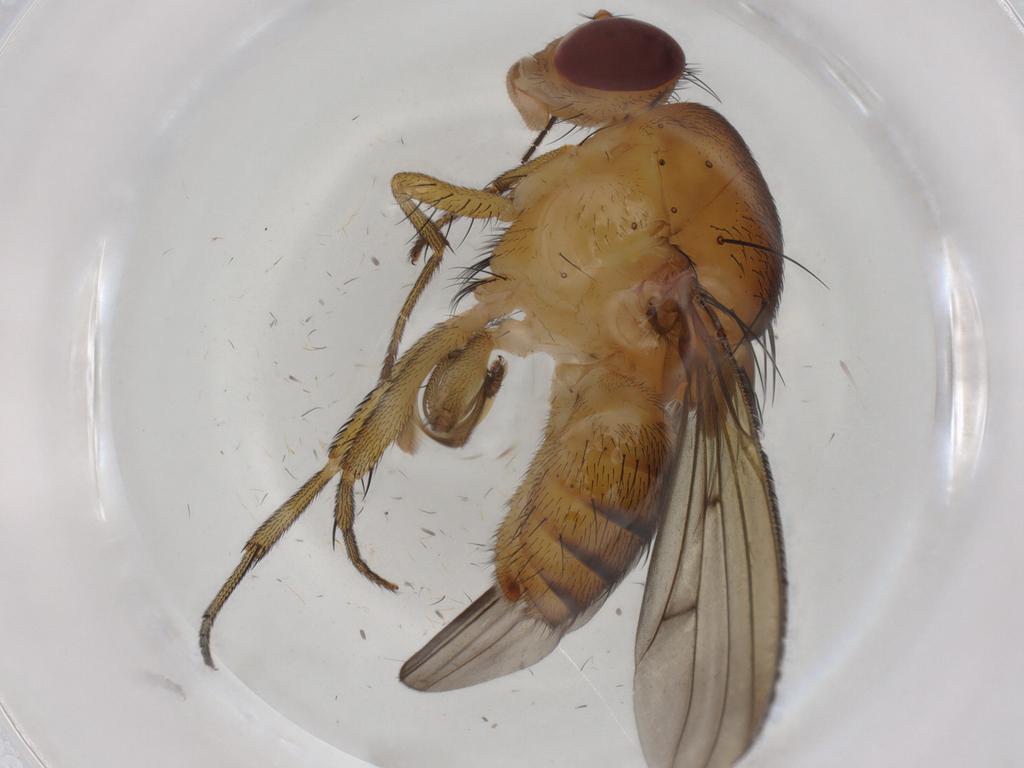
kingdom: Animalia
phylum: Arthropoda
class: Insecta
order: Diptera
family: Lauxaniidae
